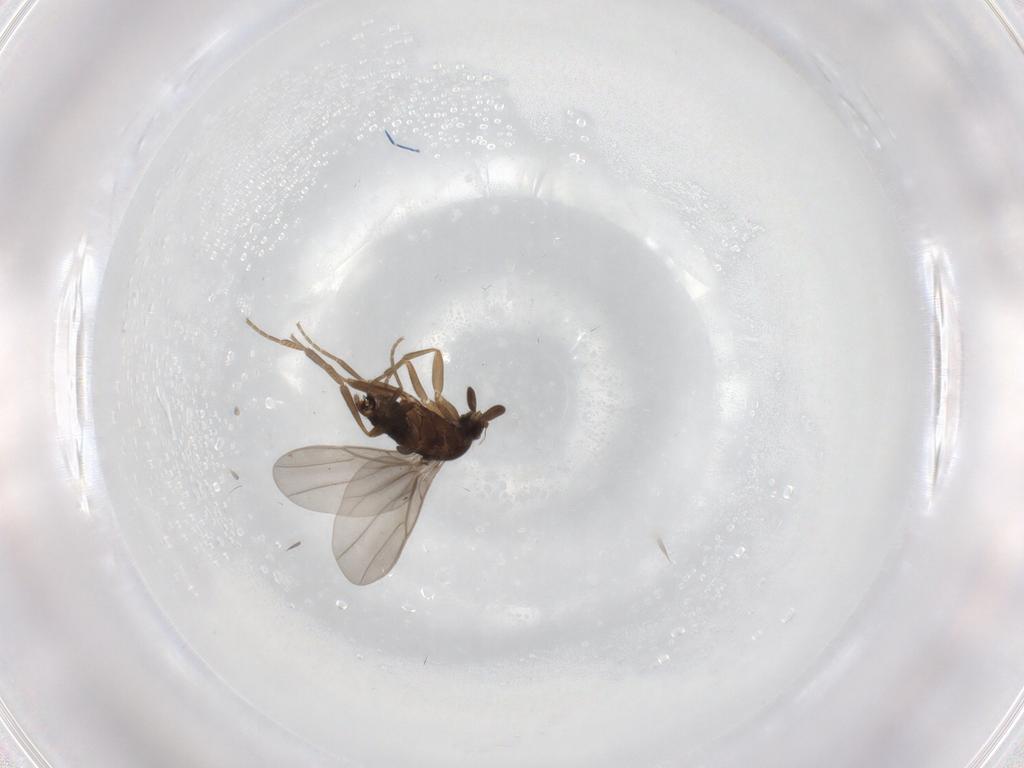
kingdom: Animalia
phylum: Arthropoda
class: Insecta
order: Diptera
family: Sciaridae
